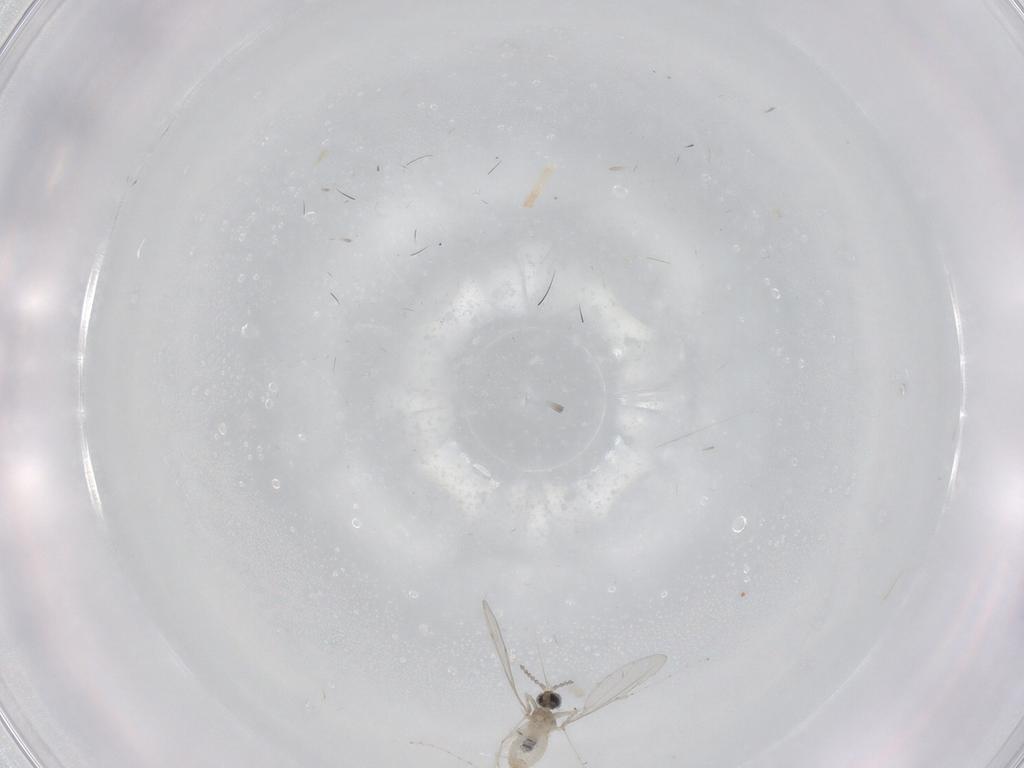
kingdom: Animalia
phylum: Arthropoda
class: Insecta
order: Diptera
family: Cecidomyiidae
